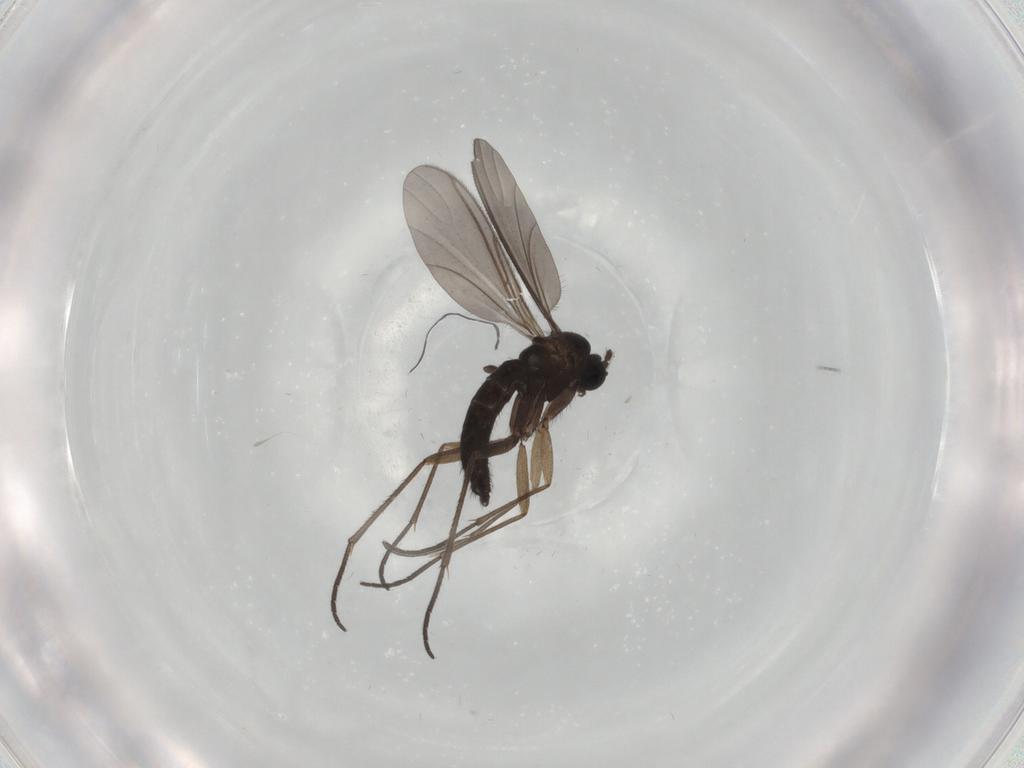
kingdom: Animalia
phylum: Arthropoda
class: Insecta
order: Diptera
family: Sciaridae
